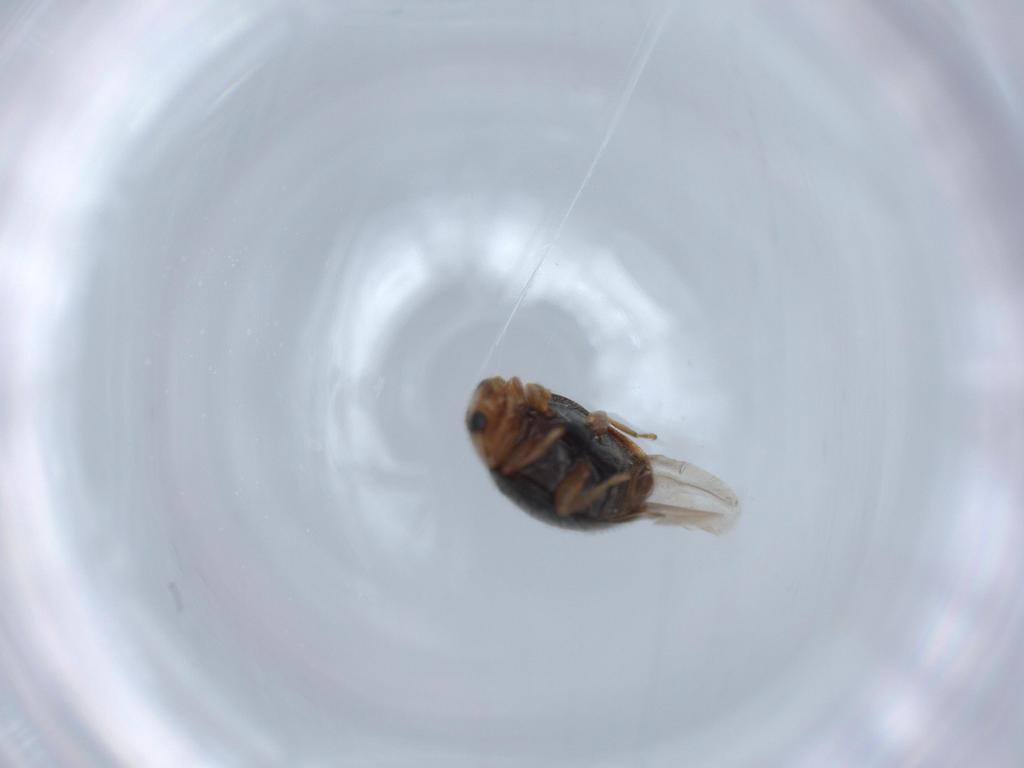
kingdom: Animalia
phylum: Arthropoda
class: Insecta
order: Coleoptera
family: Coccinellidae
